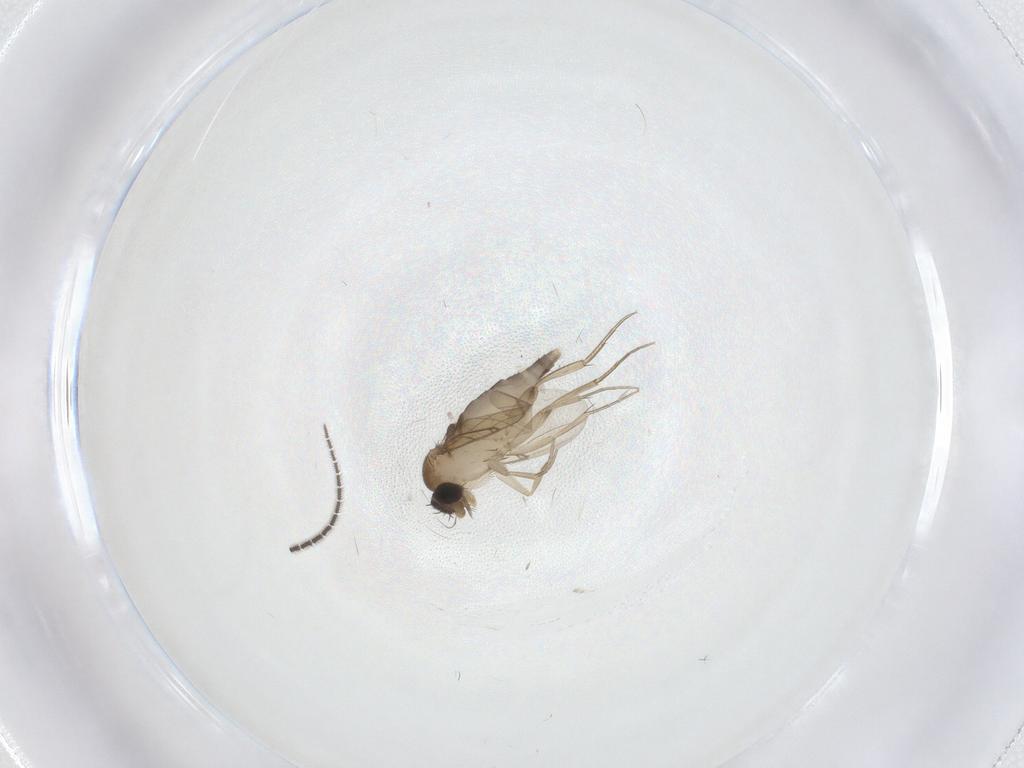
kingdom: Animalia
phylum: Arthropoda
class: Insecta
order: Diptera
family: Phoridae
